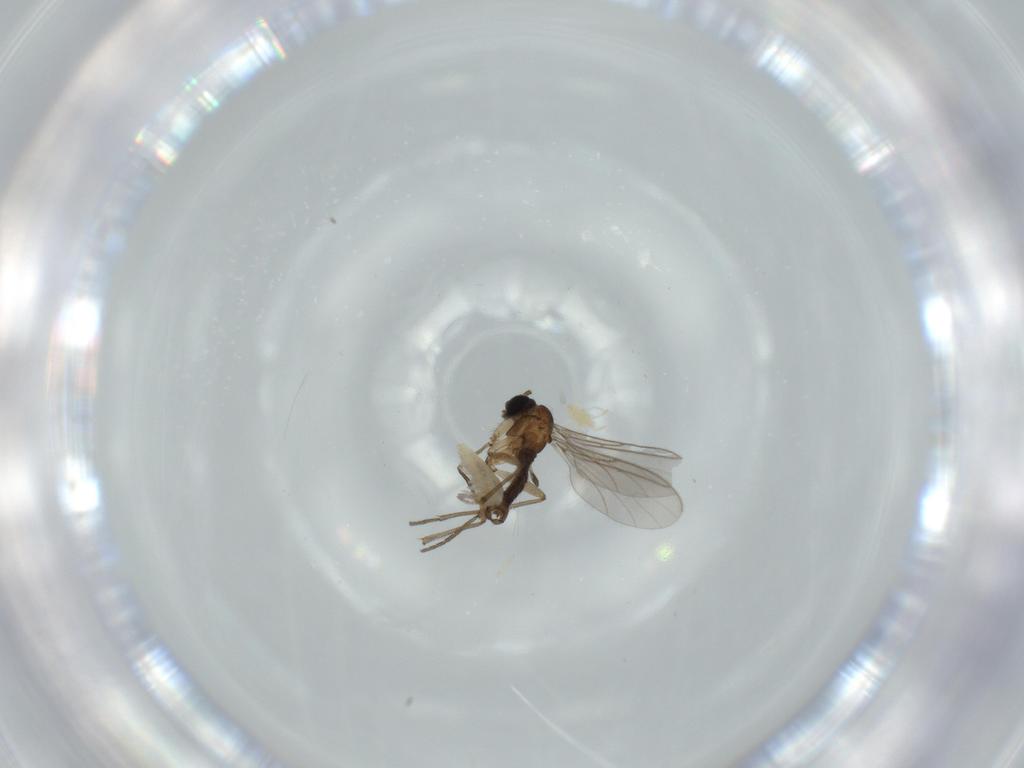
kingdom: Animalia
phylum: Arthropoda
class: Insecta
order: Diptera
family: Sciaridae
